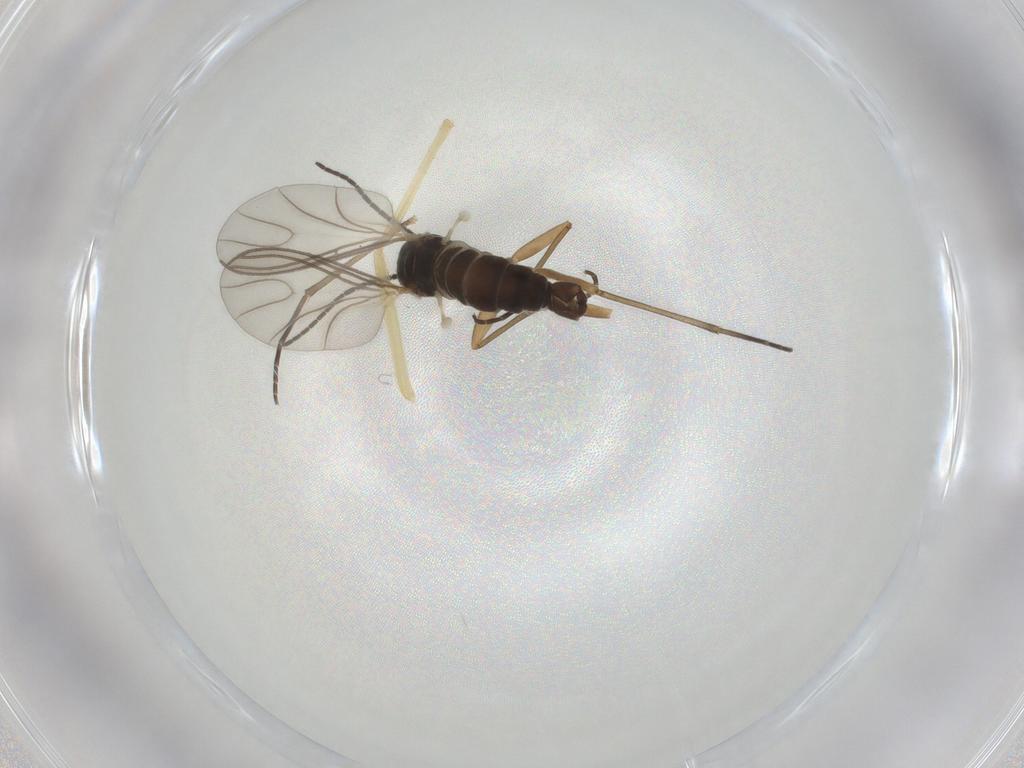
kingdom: Animalia
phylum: Arthropoda
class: Insecta
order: Diptera
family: Sciaridae
